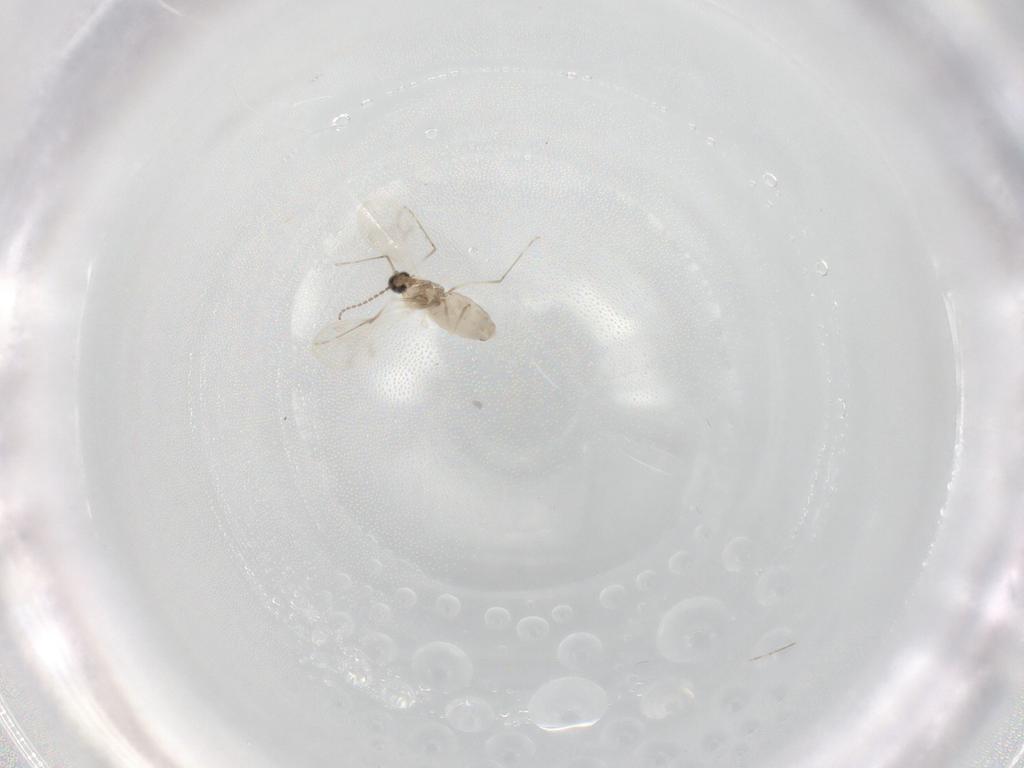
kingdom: Animalia
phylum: Arthropoda
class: Insecta
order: Diptera
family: Cecidomyiidae
